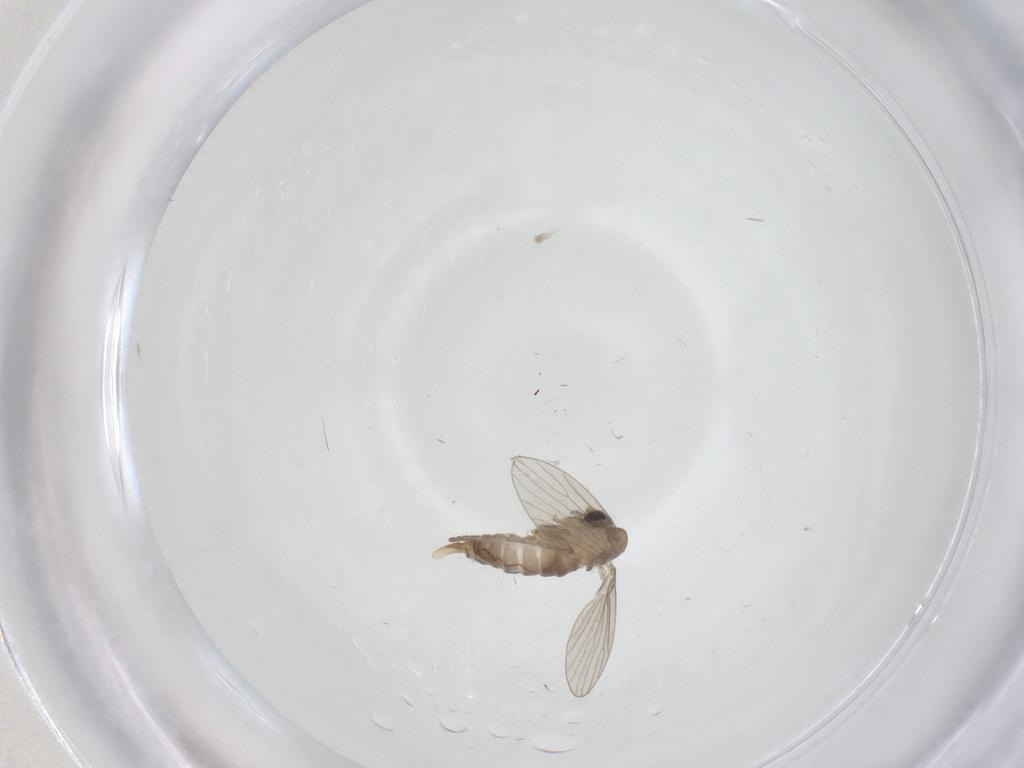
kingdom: Animalia
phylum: Arthropoda
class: Insecta
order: Diptera
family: Psychodidae
